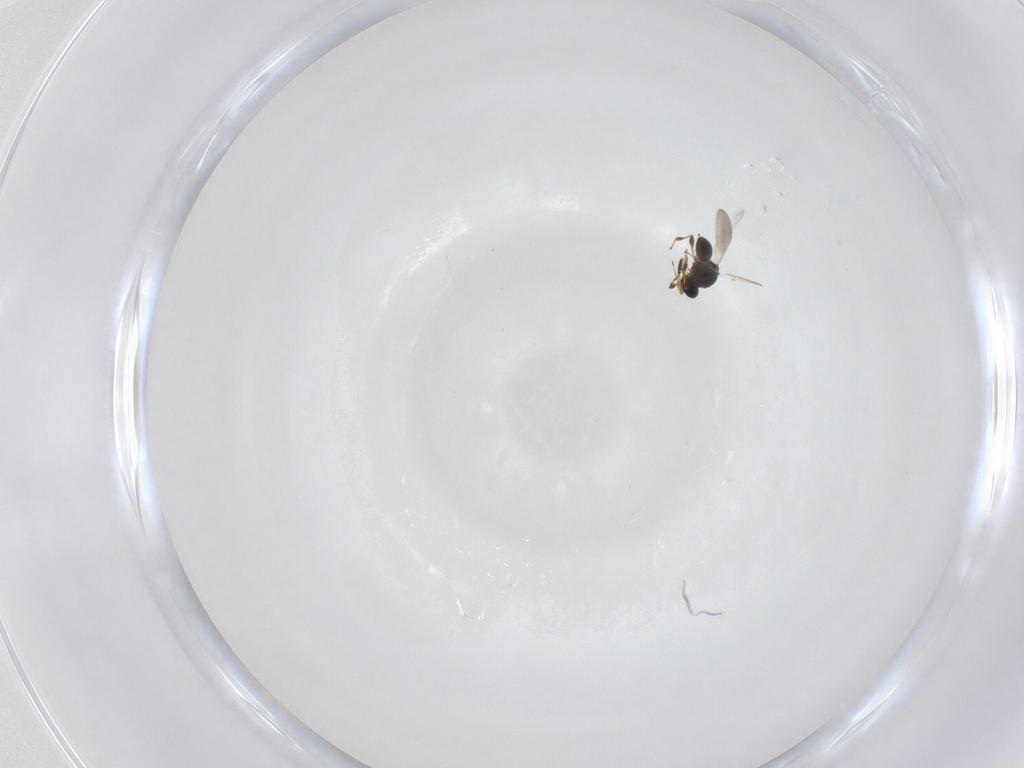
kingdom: Animalia
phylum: Arthropoda
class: Insecta
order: Hymenoptera
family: Platygastridae
